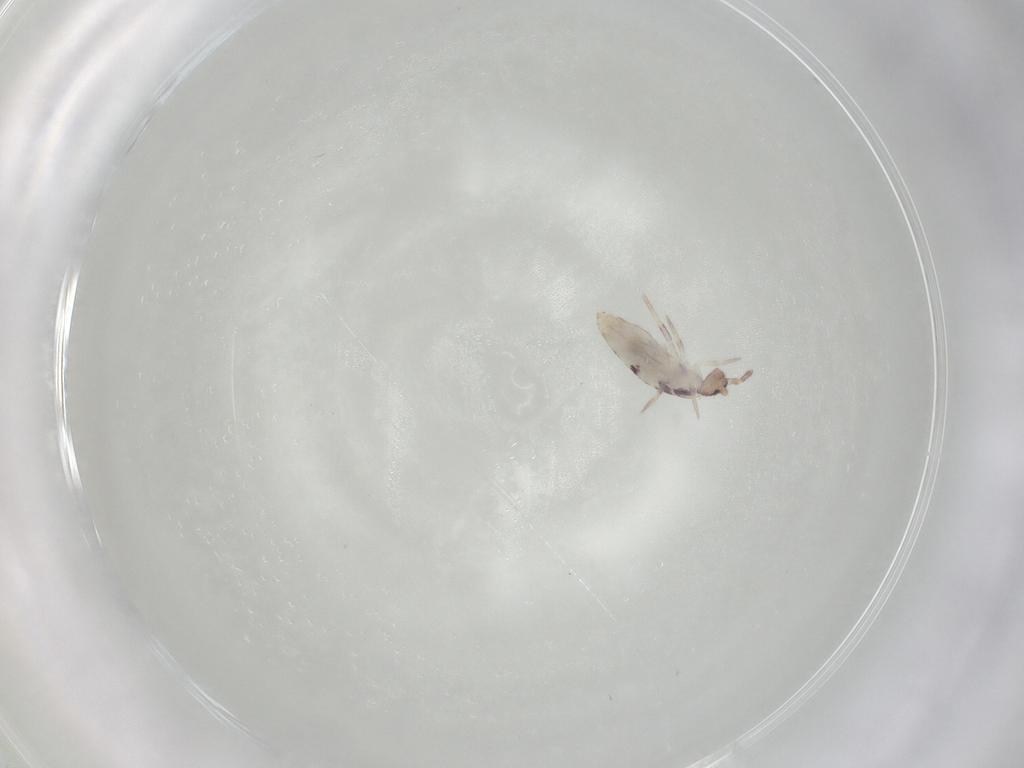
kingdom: Animalia
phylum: Arthropoda
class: Collembola
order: Entomobryomorpha
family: Entomobryidae
